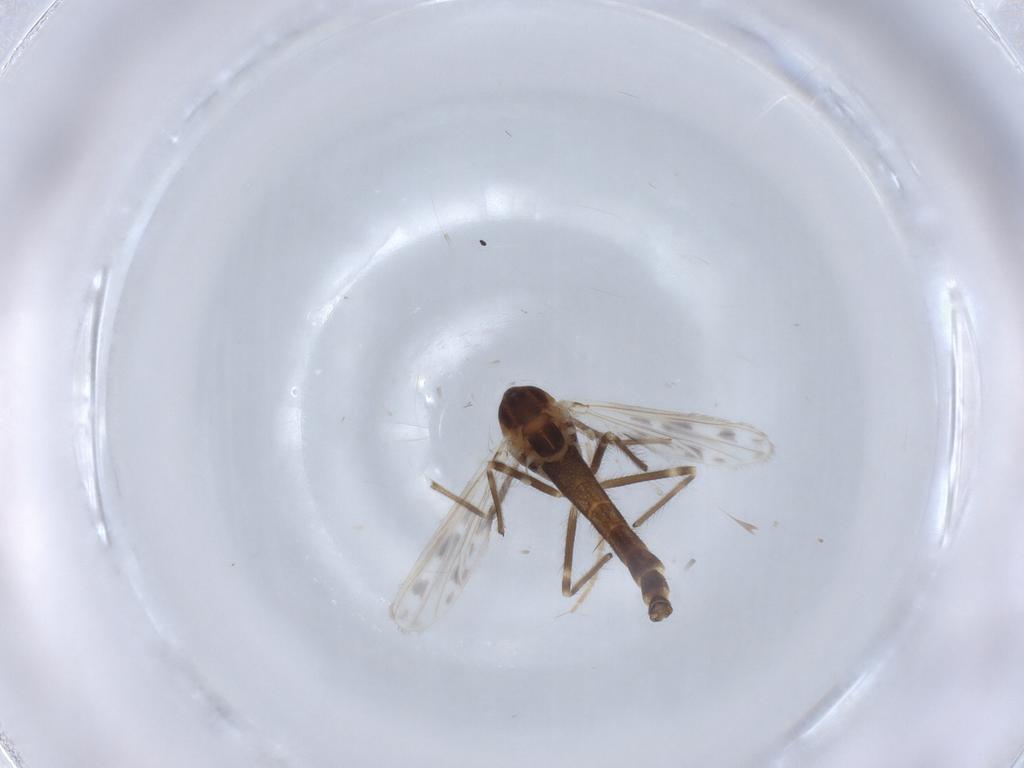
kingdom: Animalia
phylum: Arthropoda
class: Insecta
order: Diptera
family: Chironomidae
